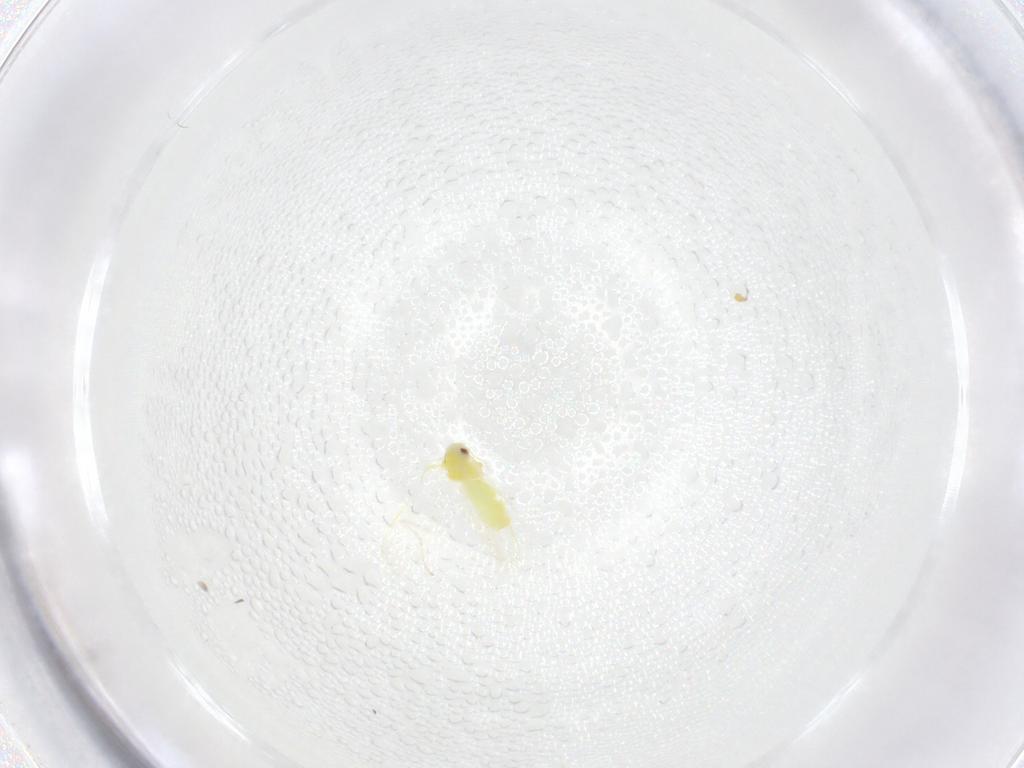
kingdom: Animalia
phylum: Arthropoda
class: Insecta
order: Hemiptera
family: Aleyrodidae
